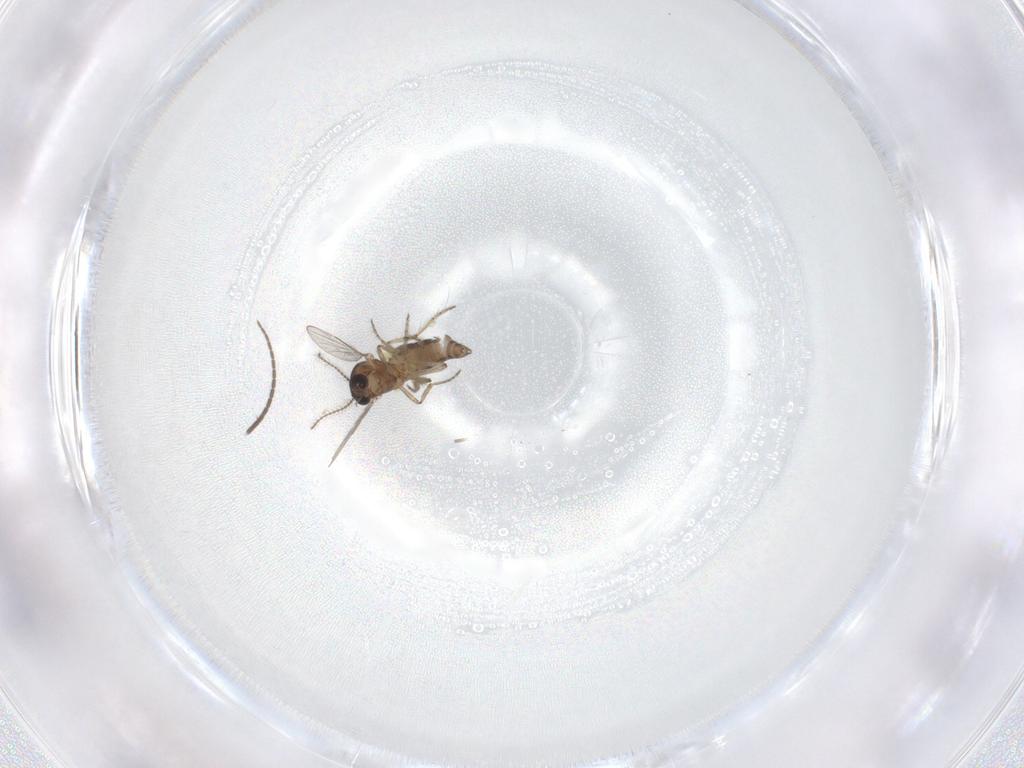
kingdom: Animalia
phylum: Arthropoda
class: Insecta
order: Diptera
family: Ceratopogonidae
